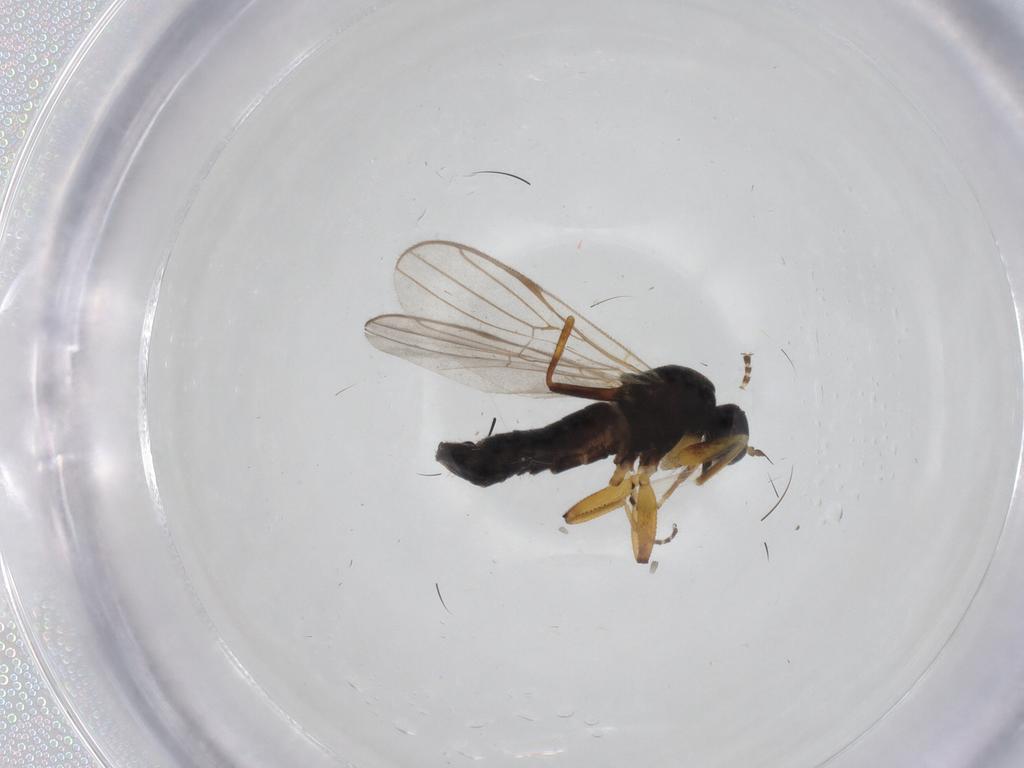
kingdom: Animalia
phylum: Arthropoda
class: Insecta
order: Diptera
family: Hybotidae
